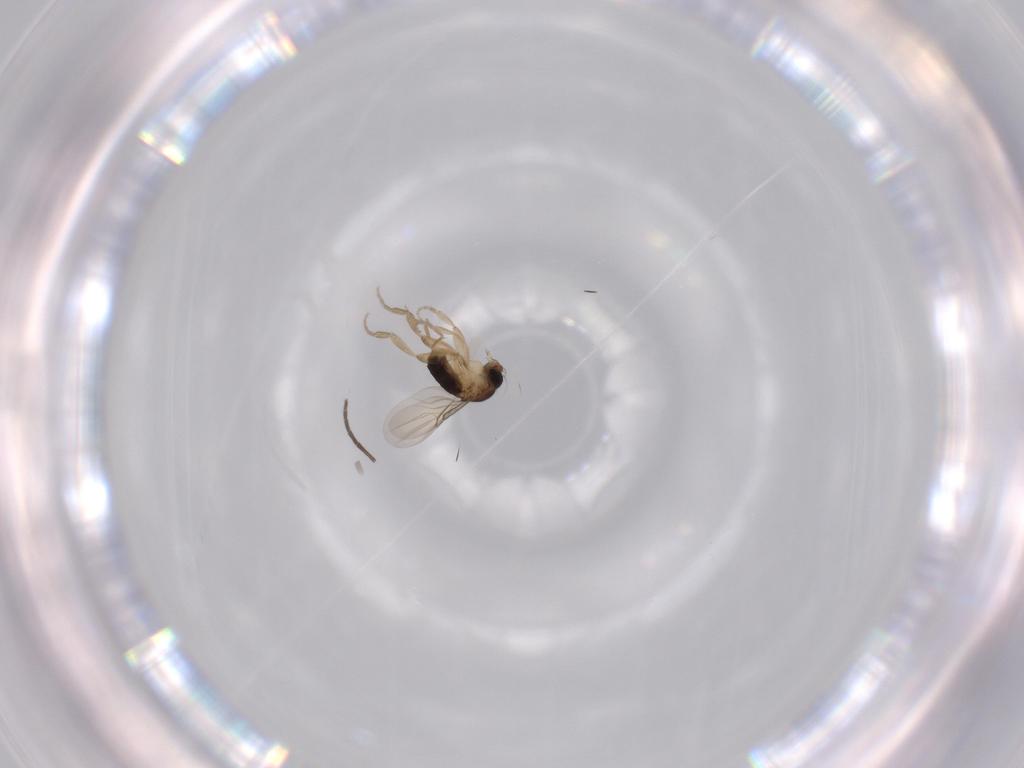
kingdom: Animalia
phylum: Arthropoda
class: Insecta
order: Diptera
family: Phoridae
